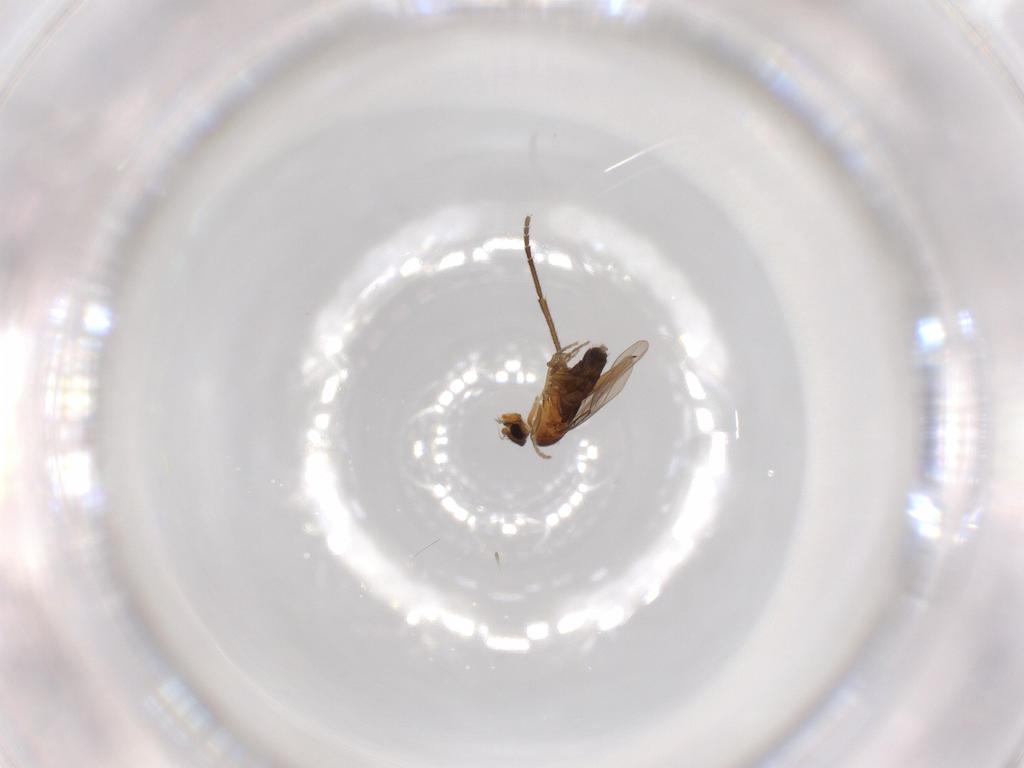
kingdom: Animalia
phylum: Arthropoda
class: Insecta
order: Diptera
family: Phoridae
